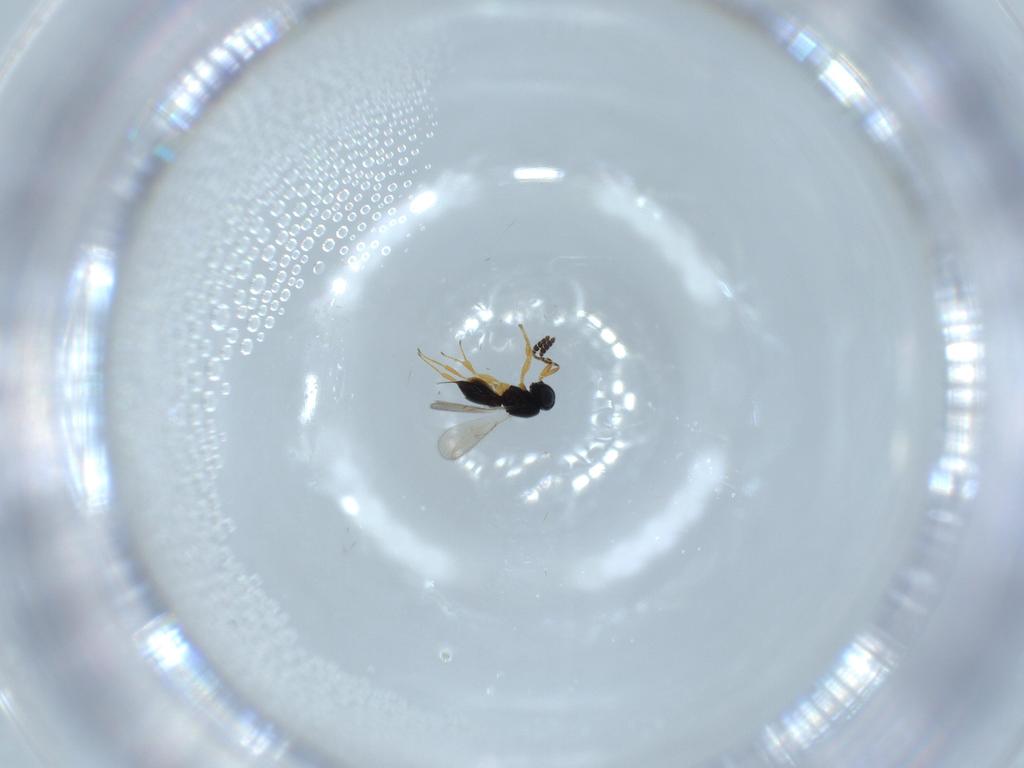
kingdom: Animalia
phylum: Arthropoda
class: Insecta
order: Hymenoptera
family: Scelionidae
